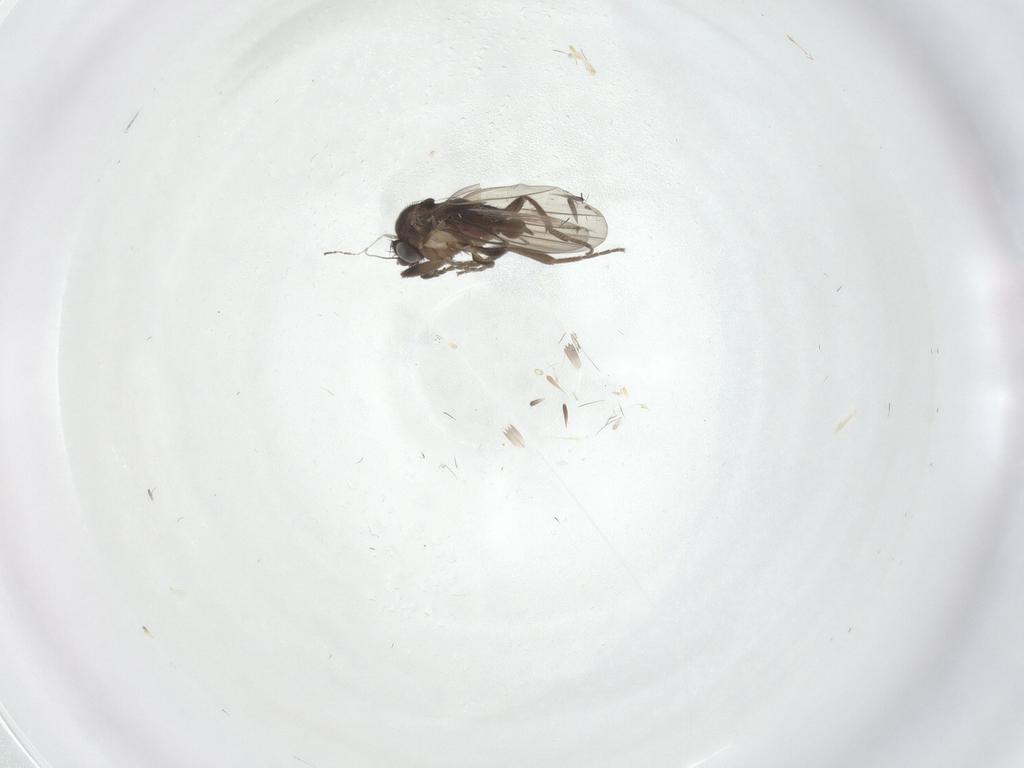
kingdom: Animalia
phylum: Arthropoda
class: Insecta
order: Diptera
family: Phoridae
